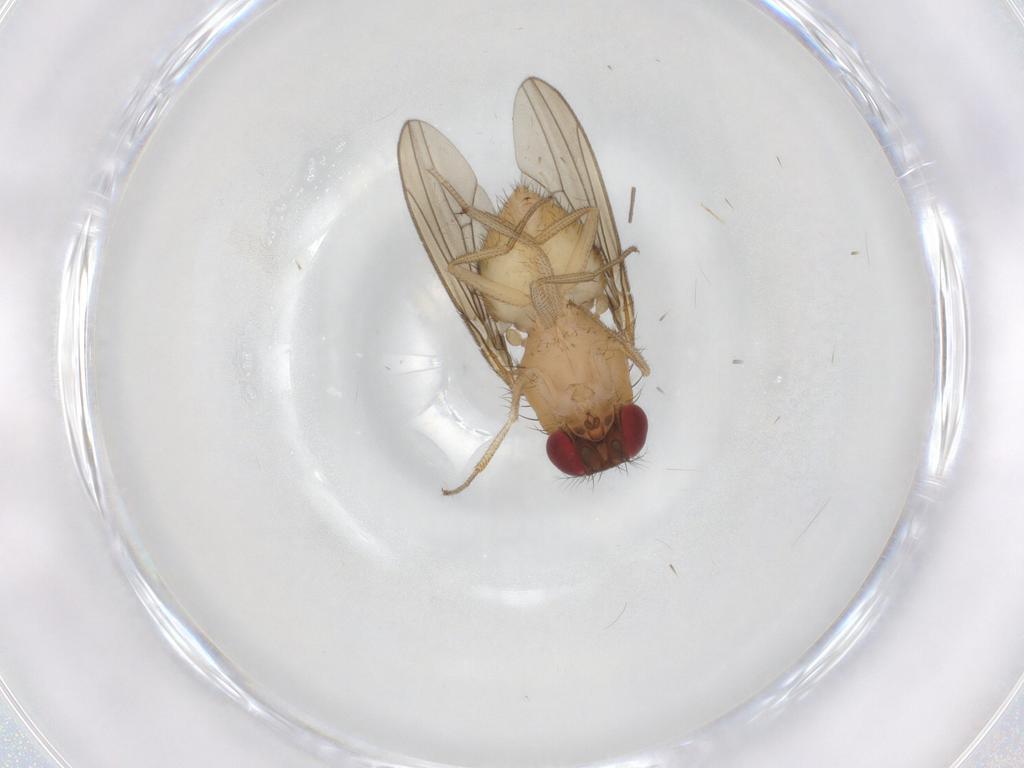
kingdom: Animalia
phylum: Arthropoda
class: Insecta
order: Diptera
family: Drosophilidae
